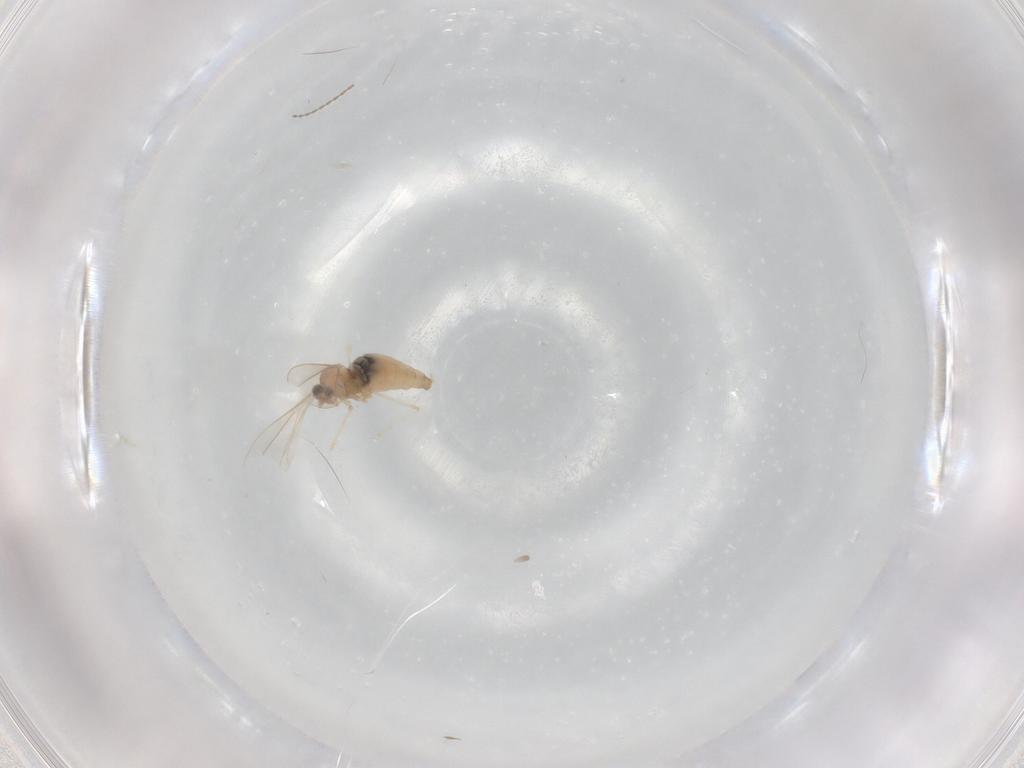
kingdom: Animalia
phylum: Arthropoda
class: Insecta
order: Diptera
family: Cecidomyiidae
